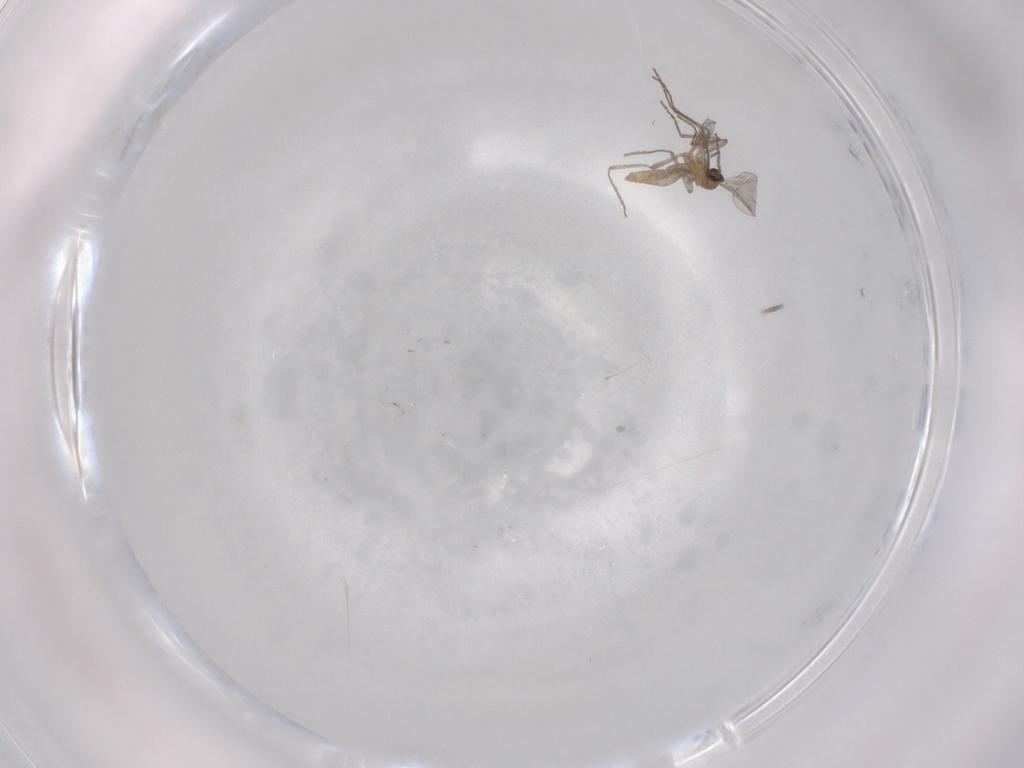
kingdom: Animalia
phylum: Arthropoda
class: Insecta
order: Diptera
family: Cecidomyiidae
